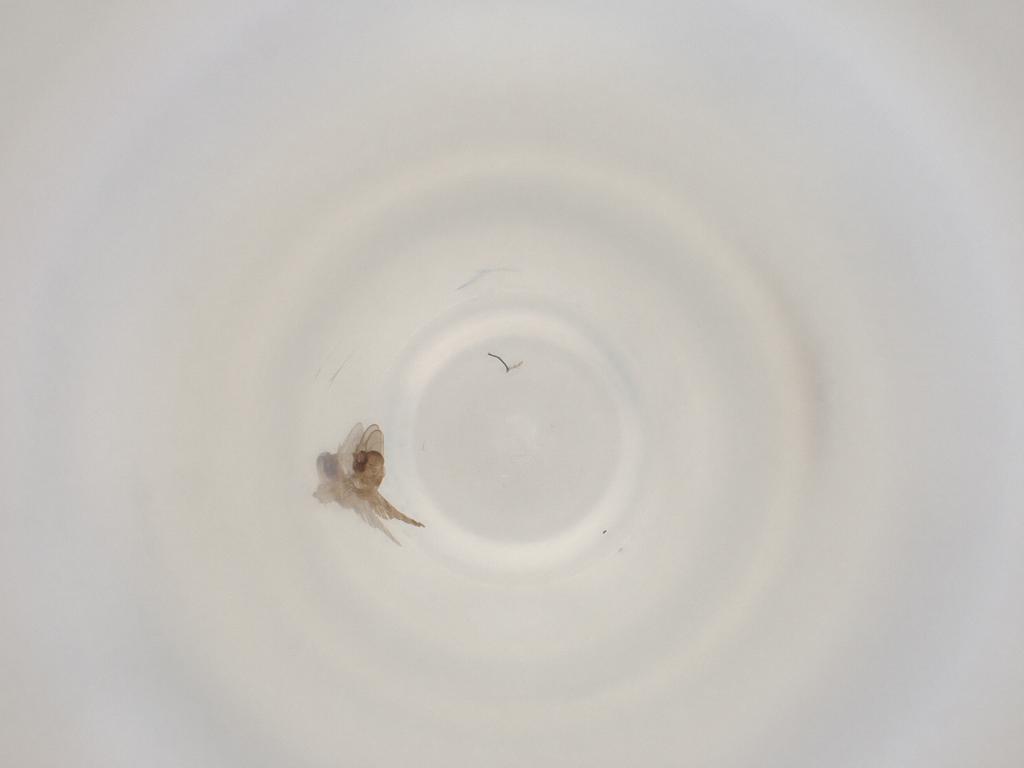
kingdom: Animalia
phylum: Arthropoda
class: Insecta
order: Diptera
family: Cecidomyiidae
